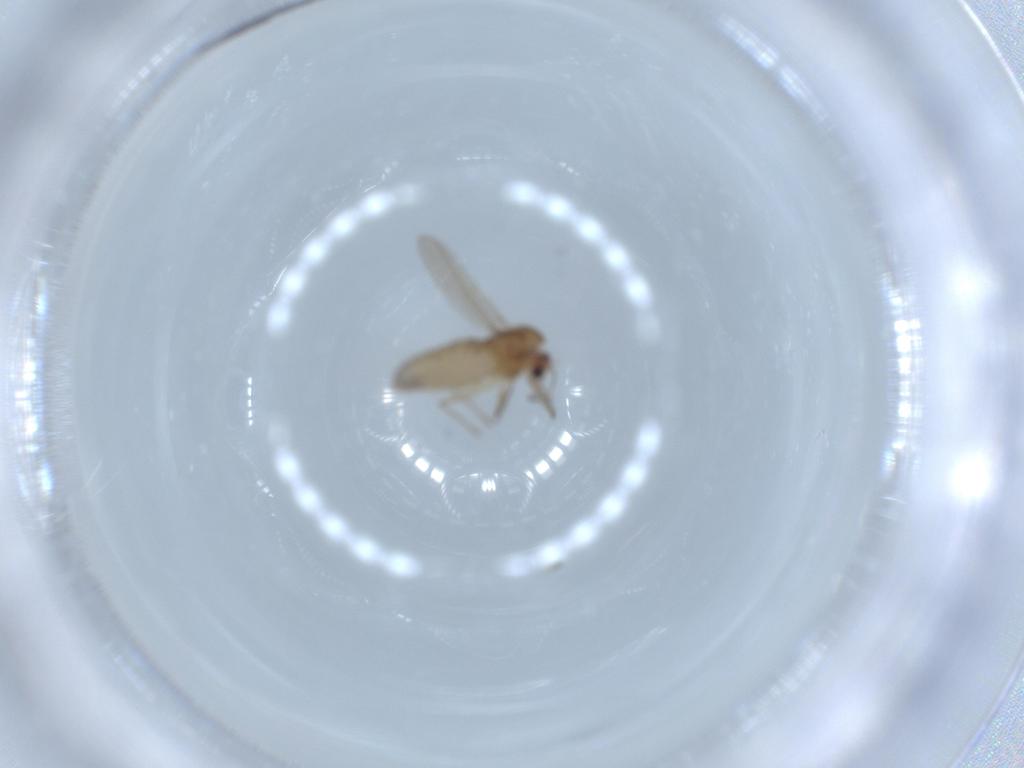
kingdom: Animalia
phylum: Arthropoda
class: Insecta
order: Diptera
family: Chironomidae
